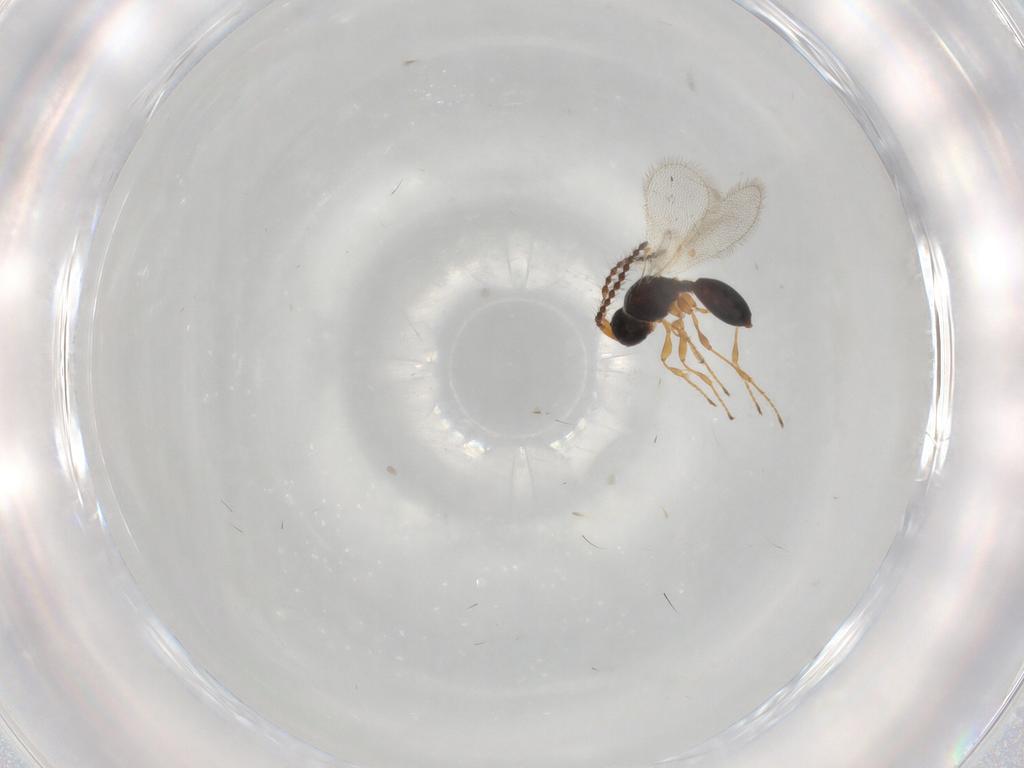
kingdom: Animalia
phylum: Arthropoda
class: Insecta
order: Hymenoptera
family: Diapriidae
